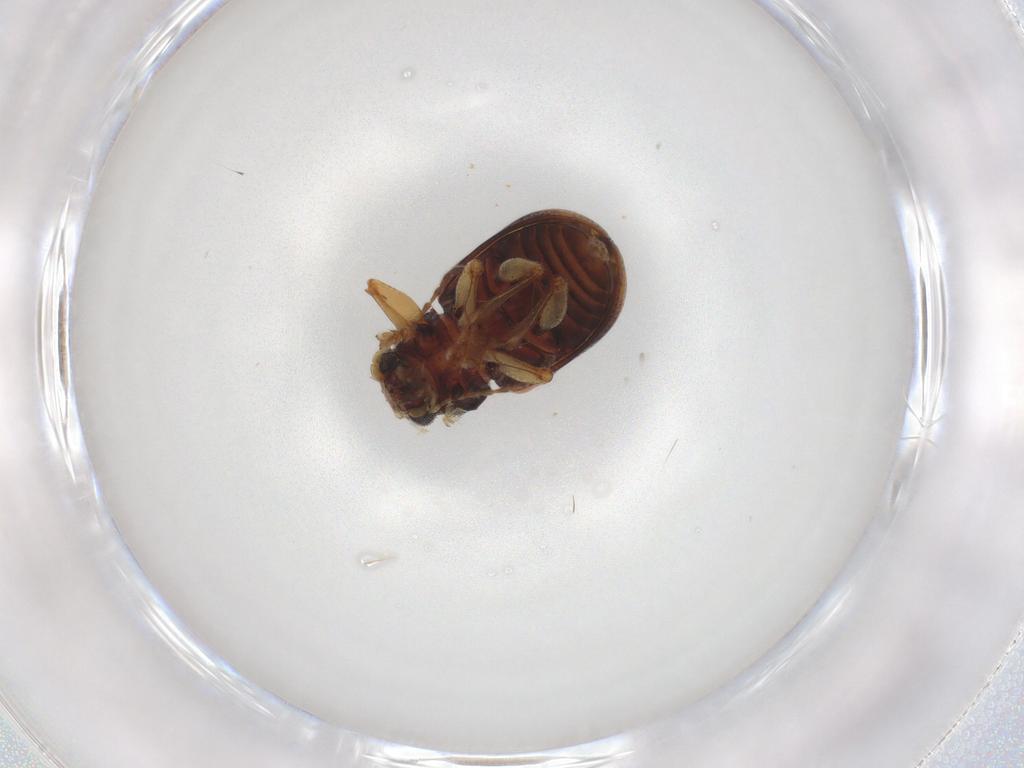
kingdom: Animalia
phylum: Arthropoda
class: Insecta
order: Coleoptera
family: Chrysomelidae
